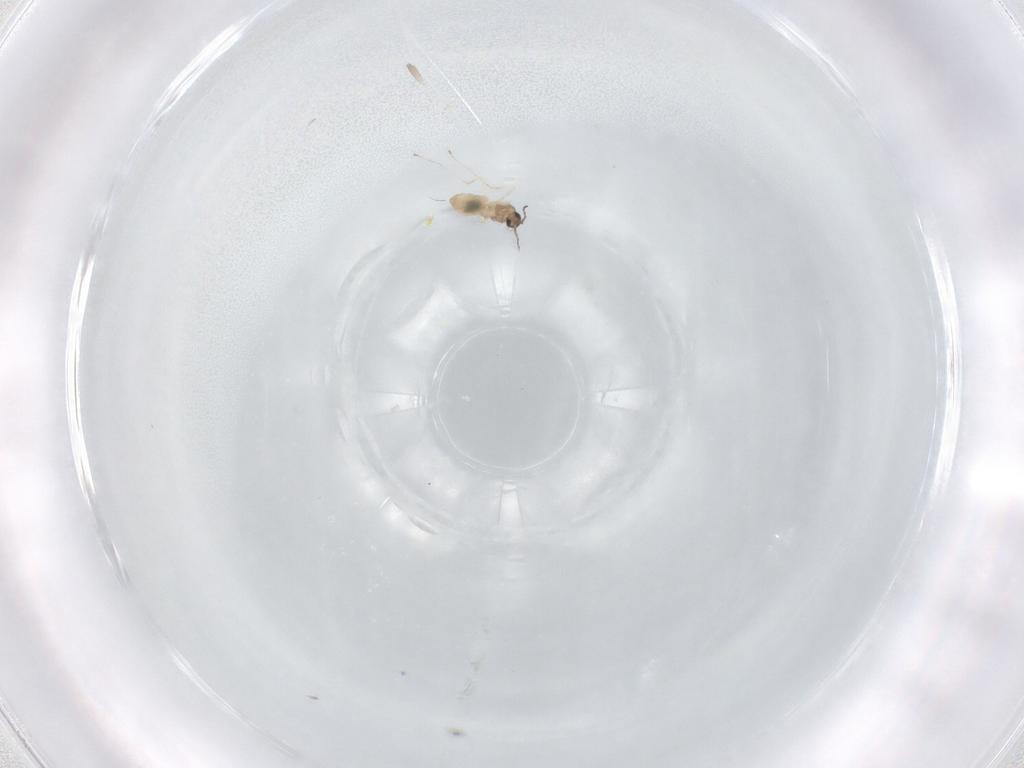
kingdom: Animalia
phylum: Arthropoda
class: Insecta
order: Diptera
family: Cecidomyiidae
